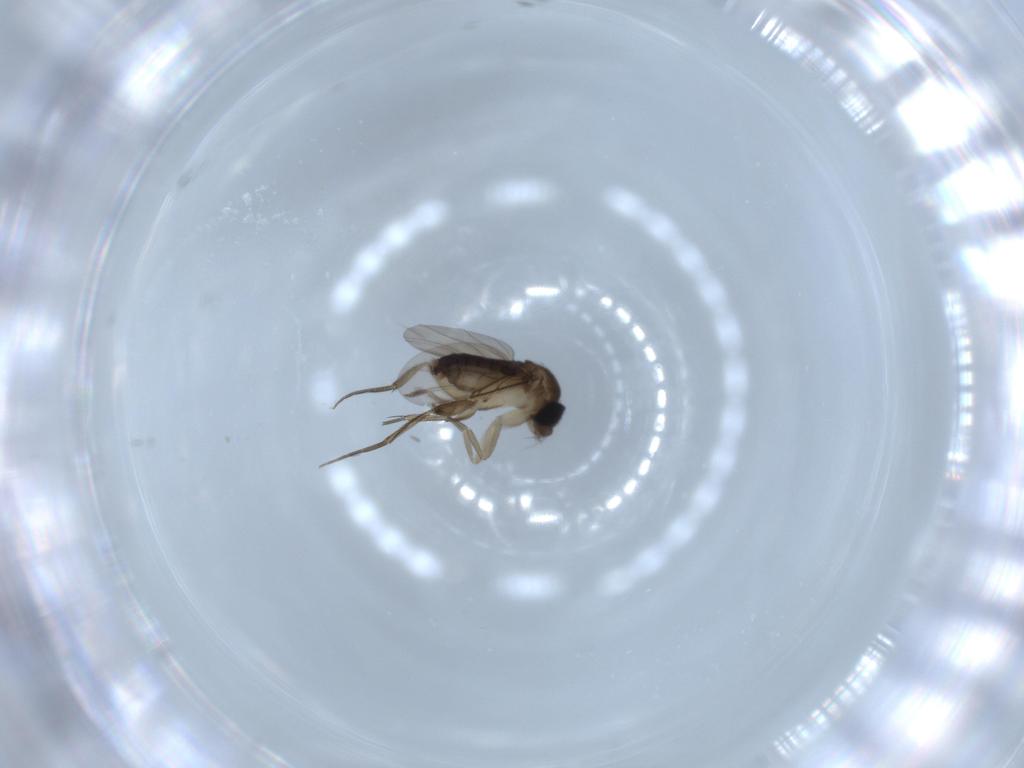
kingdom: Animalia
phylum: Arthropoda
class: Insecta
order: Diptera
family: Phoridae
